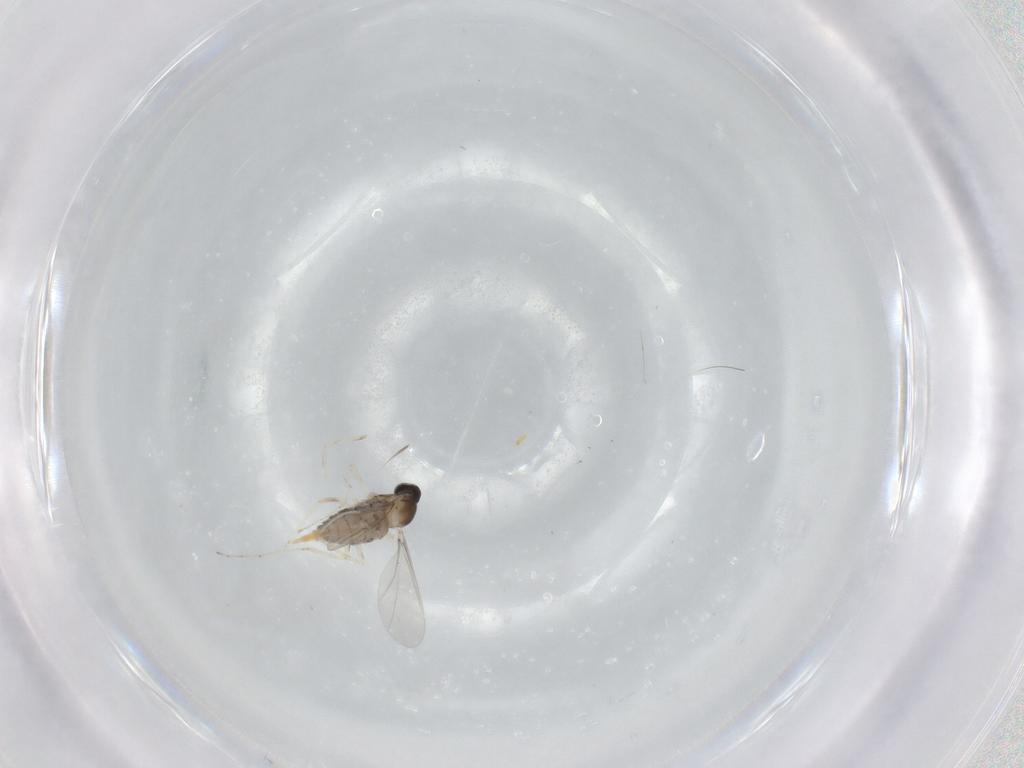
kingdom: Animalia
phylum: Arthropoda
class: Insecta
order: Diptera
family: Cecidomyiidae
